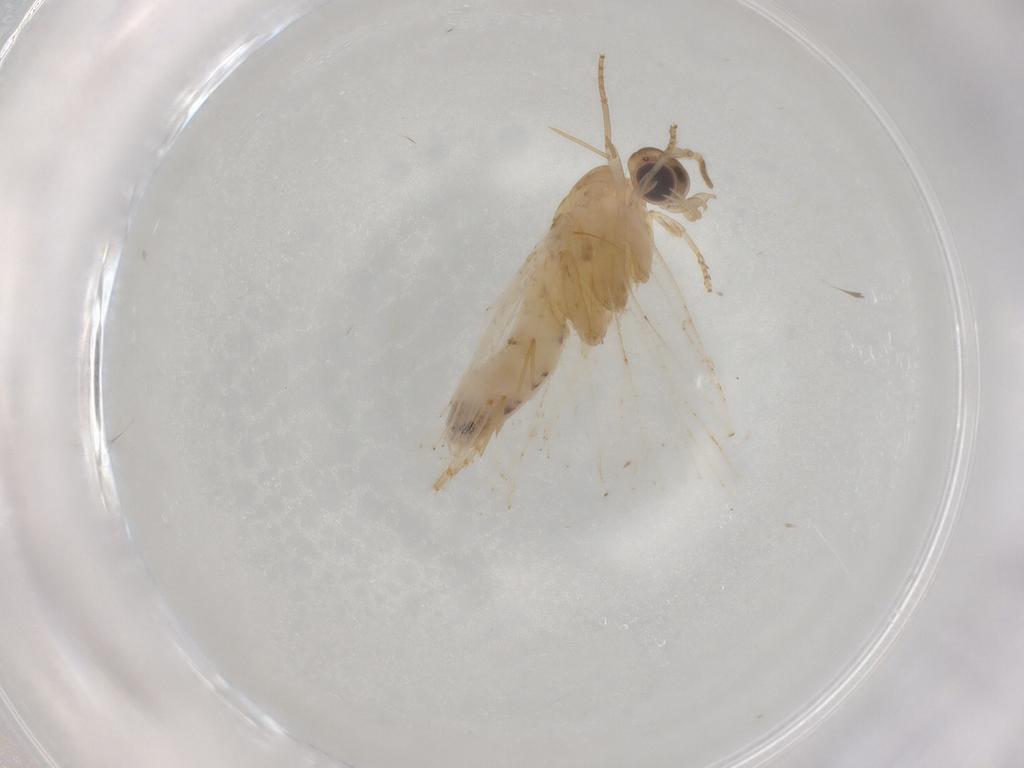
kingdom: Animalia
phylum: Arthropoda
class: Insecta
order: Lepidoptera
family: Tortricidae
